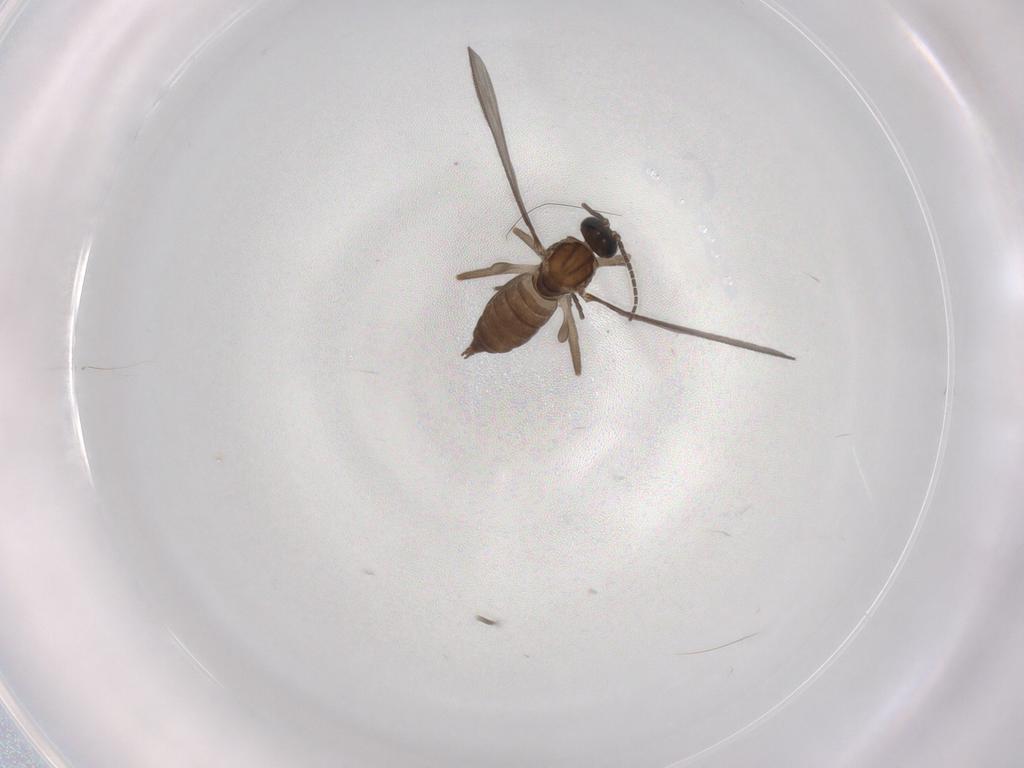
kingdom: Animalia
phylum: Arthropoda
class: Insecta
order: Diptera
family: Sciaridae
